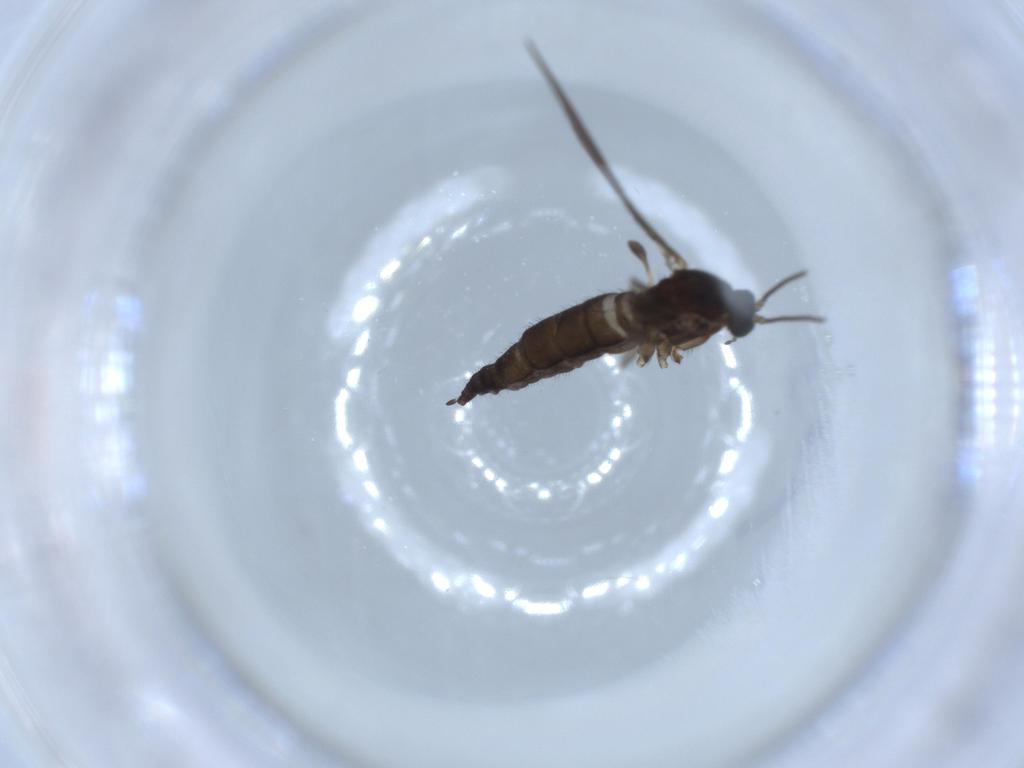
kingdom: Animalia
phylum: Arthropoda
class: Insecta
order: Diptera
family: Sciaridae
